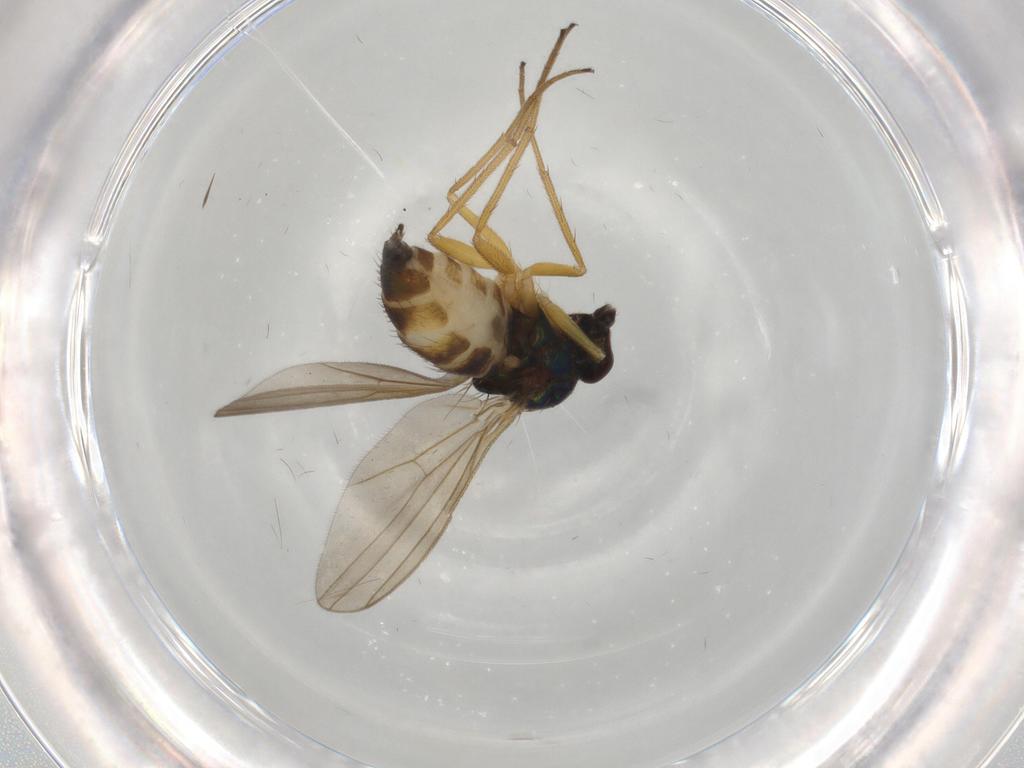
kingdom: Animalia
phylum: Arthropoda
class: Insecta
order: Diptera
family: Dolichopodidae
